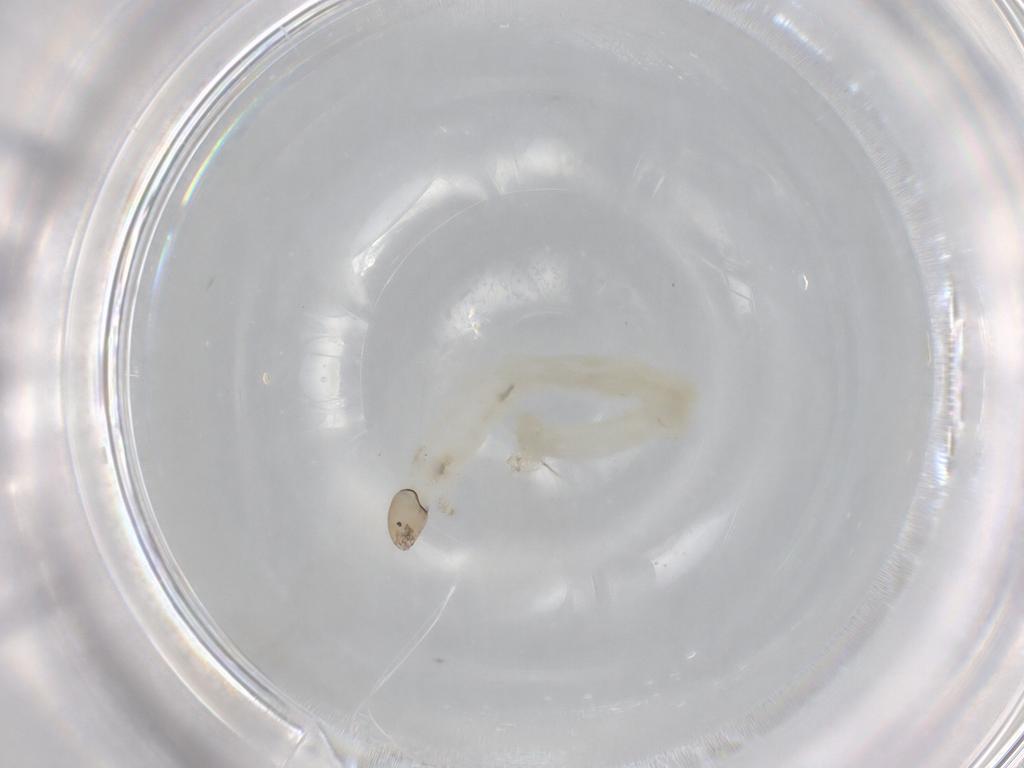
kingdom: Animalia
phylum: Arthropoda
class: Insecta
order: Diptera
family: Chironomidae
